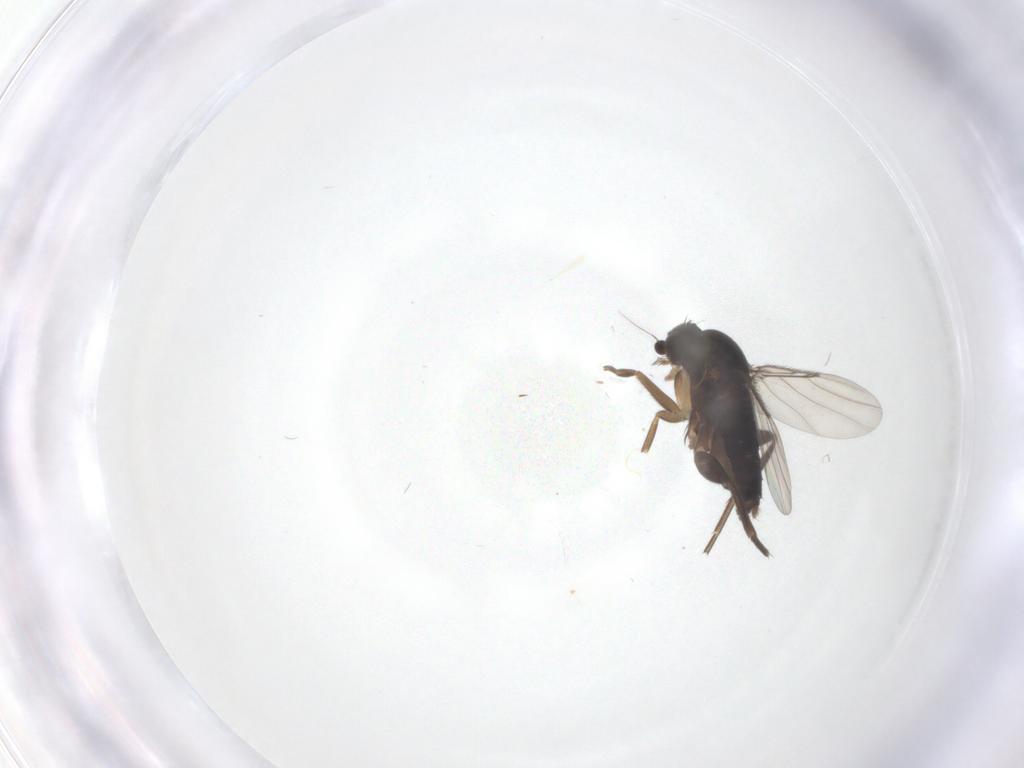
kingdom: Animalia
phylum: Arthropoda
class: Insecta
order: Diptera
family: Phoridae
